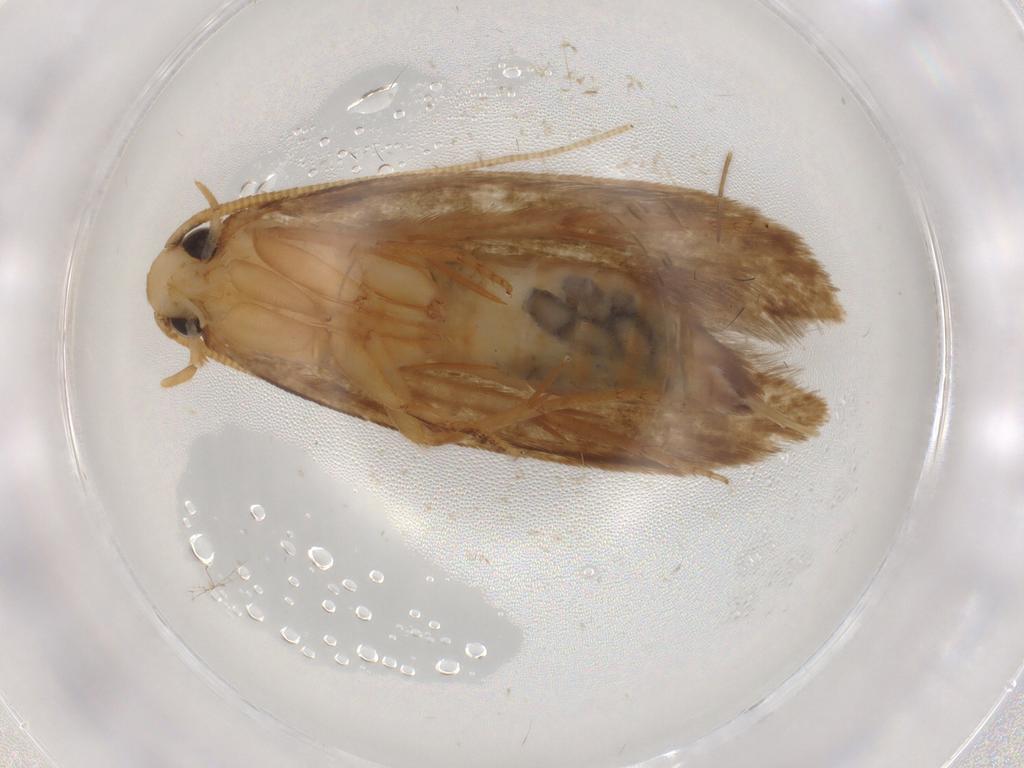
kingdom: Animalia
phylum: Arthropoda
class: Insecta
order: Lepidoptera
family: Tineidae
